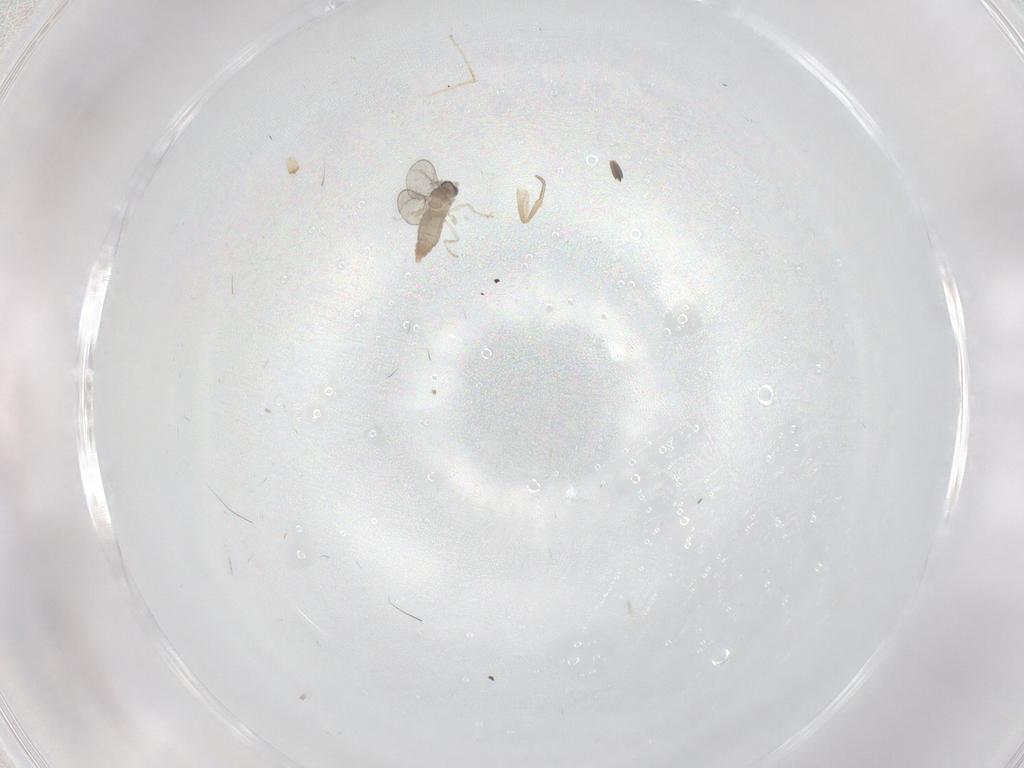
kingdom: Animalia
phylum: Arthropoda
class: Insecta
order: Diptera
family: Cecidomyiidae
